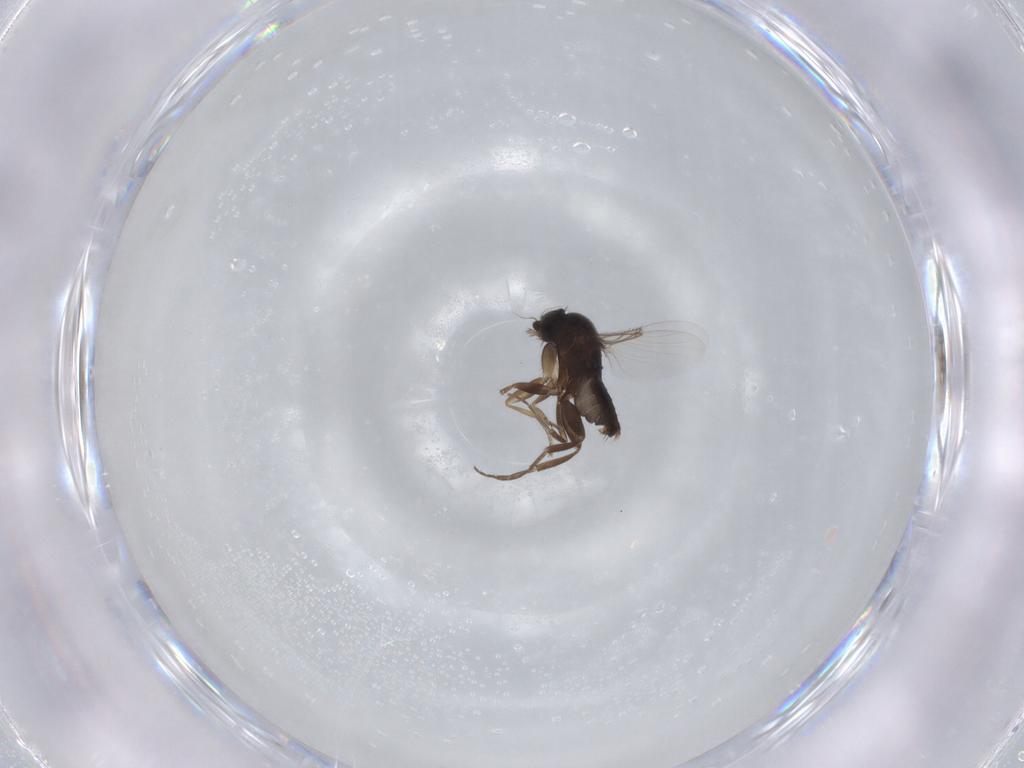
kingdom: Animalia
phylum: Arthropoda
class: Insecta
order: Diptera
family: Phoridae
